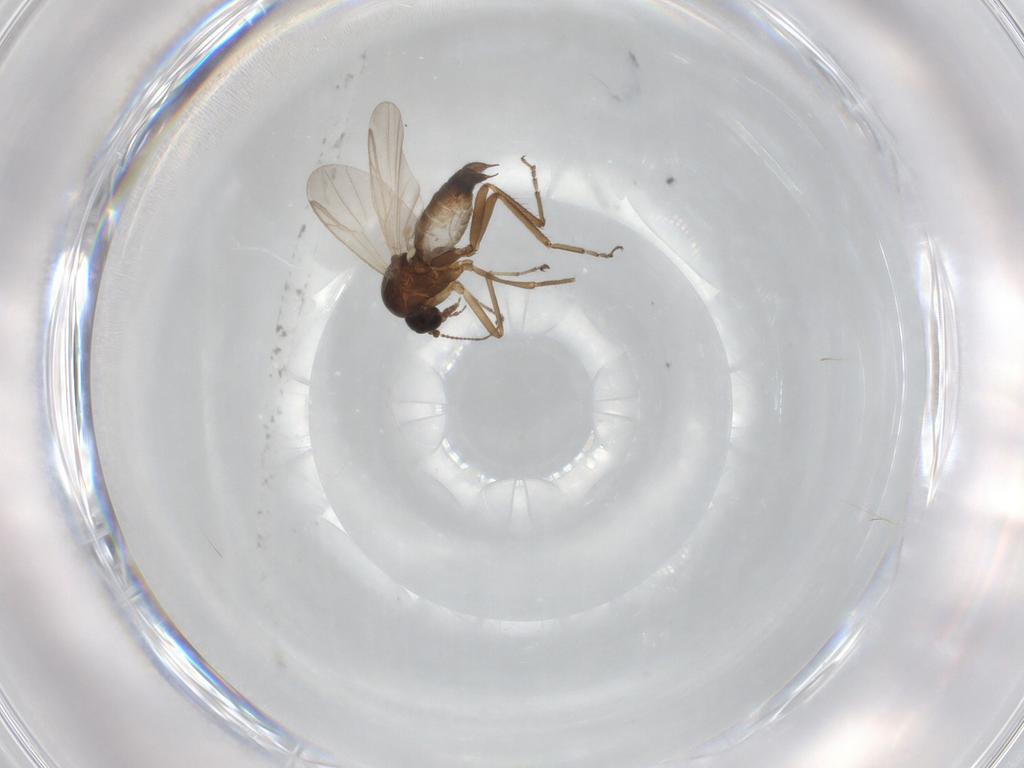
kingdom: Animalia
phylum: Arthropoda
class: Insecta
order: Diptera
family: Ceratopogonidae
